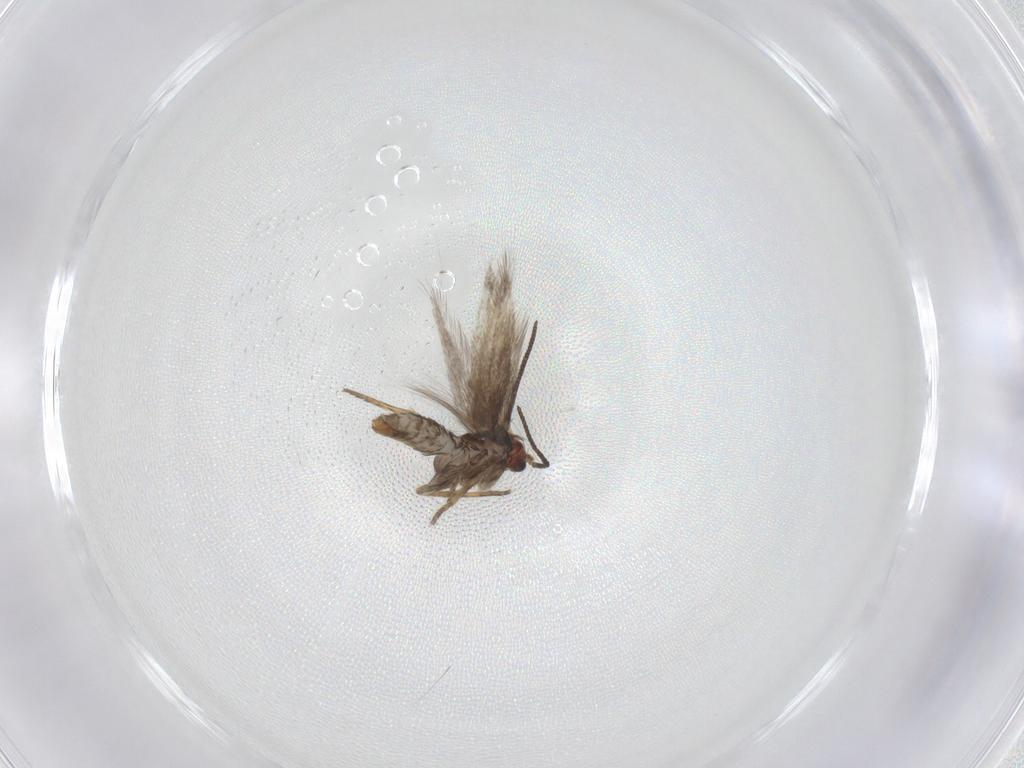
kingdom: Animalia
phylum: Arthropoda
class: Insecta
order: Lepidoptera
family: Nepticulidae
